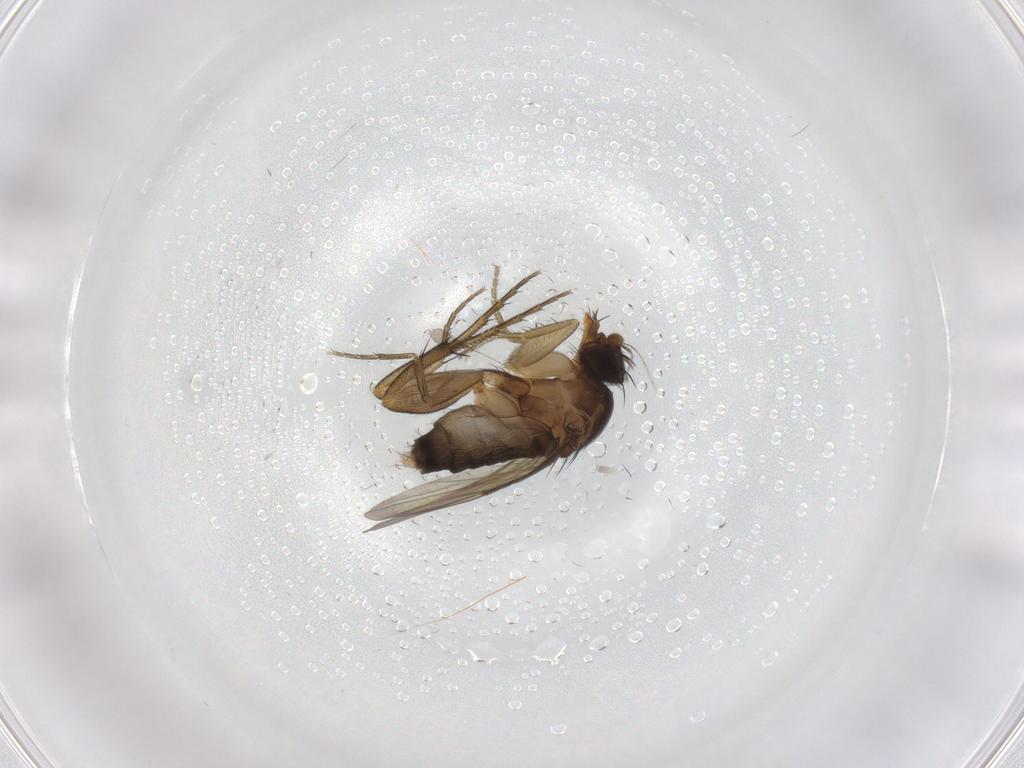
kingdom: Animalia
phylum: Arthropoda
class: Insecta
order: Diptera
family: Phoridae
